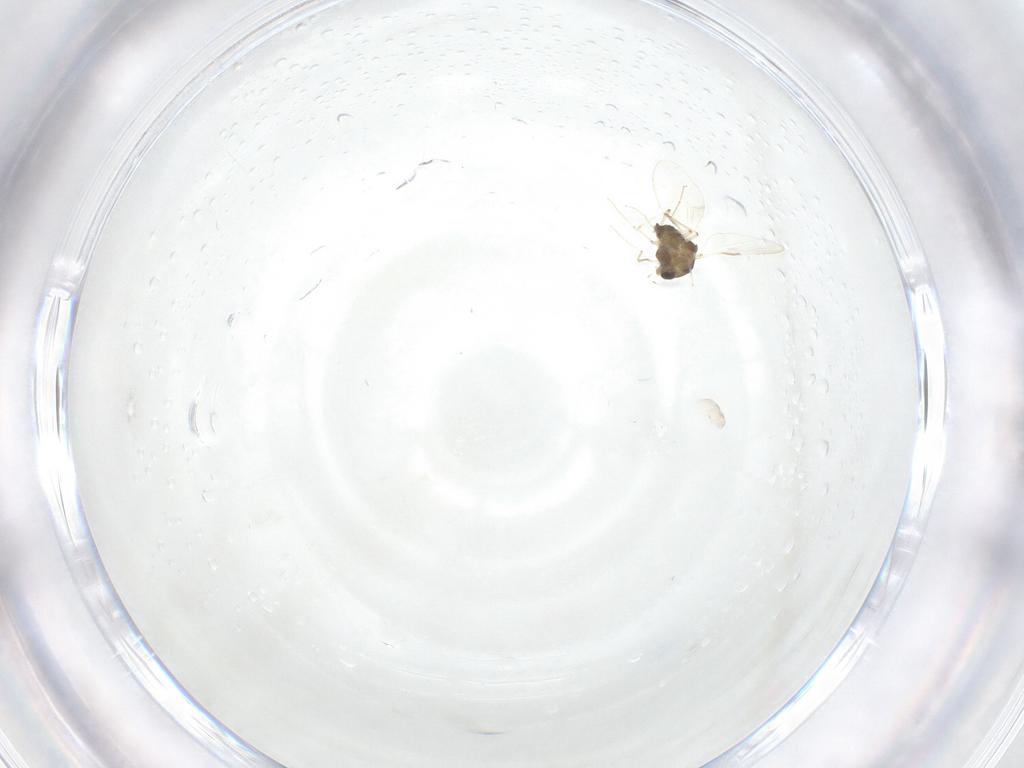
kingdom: Animalia
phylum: Arthropoda
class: Insecta
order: Diptera
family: Chironomidae
